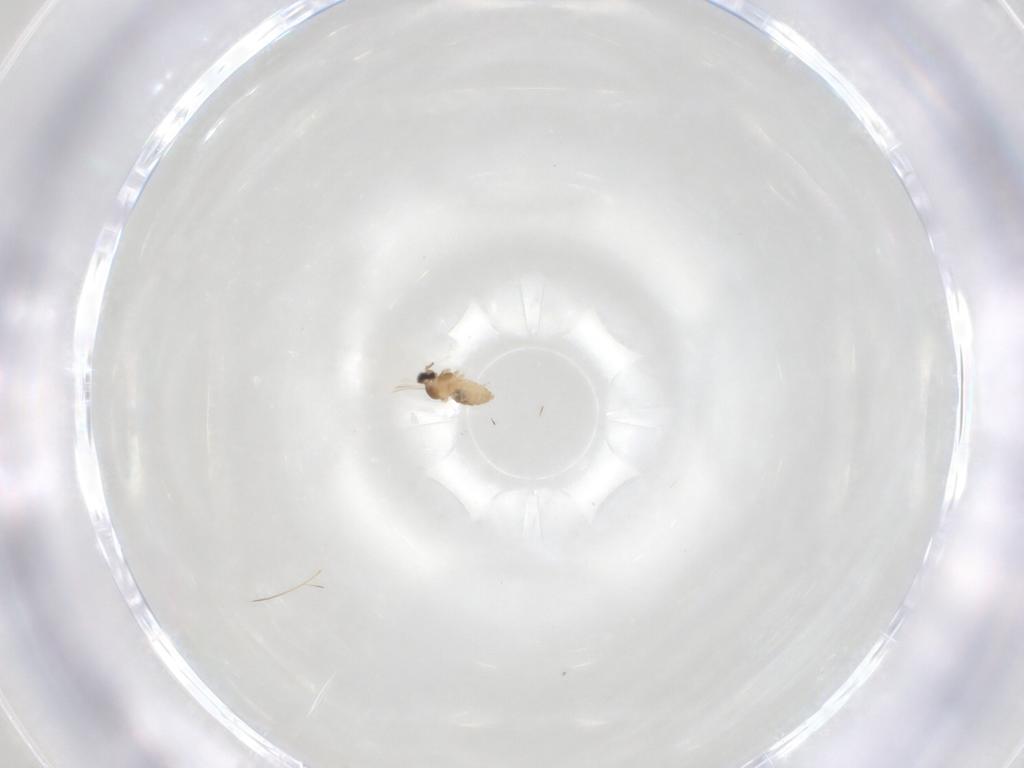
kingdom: Animalia
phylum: Arthropoda
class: Insecta
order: Diptera
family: Cecidomyiidae
